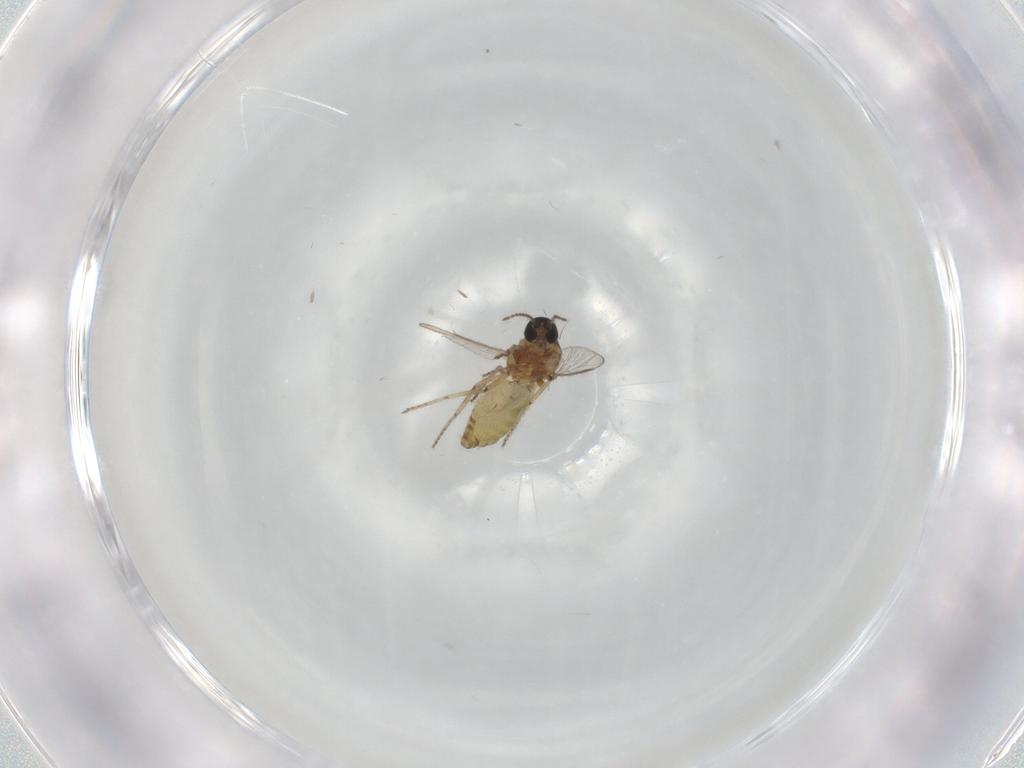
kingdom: Animalia
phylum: Arthropoda
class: Insecta
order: Diptera
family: Ceratopogonidae
